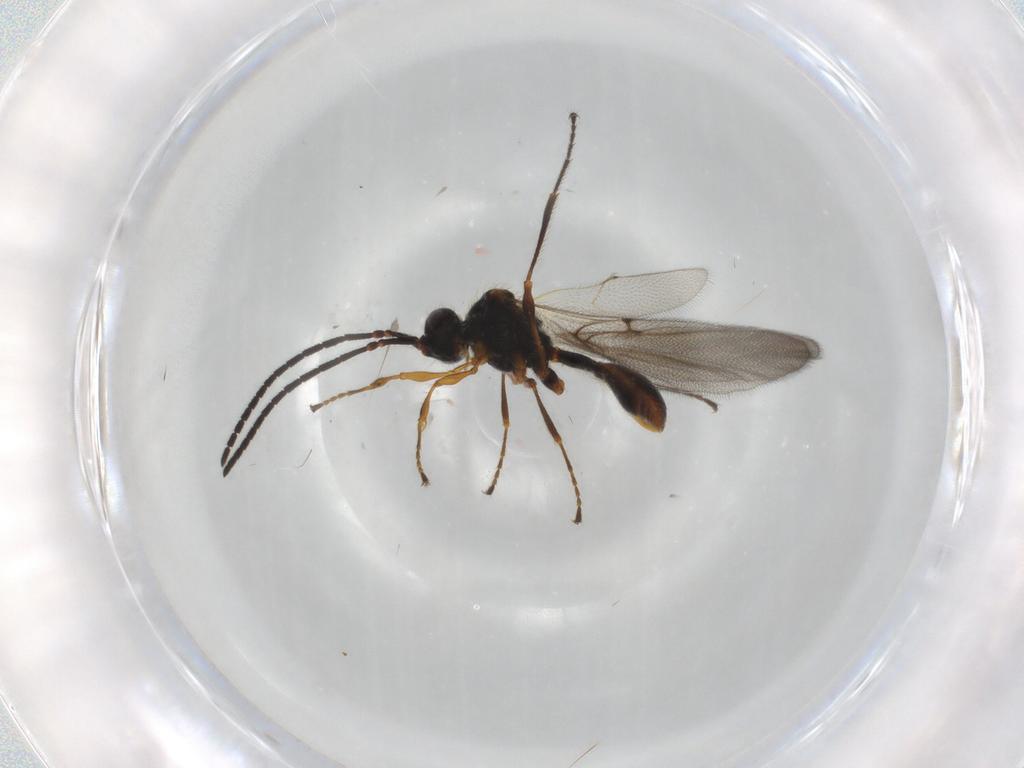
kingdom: Animalia
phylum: Arthropoda
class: Insecta
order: Hymenoptera
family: Diapriidae
